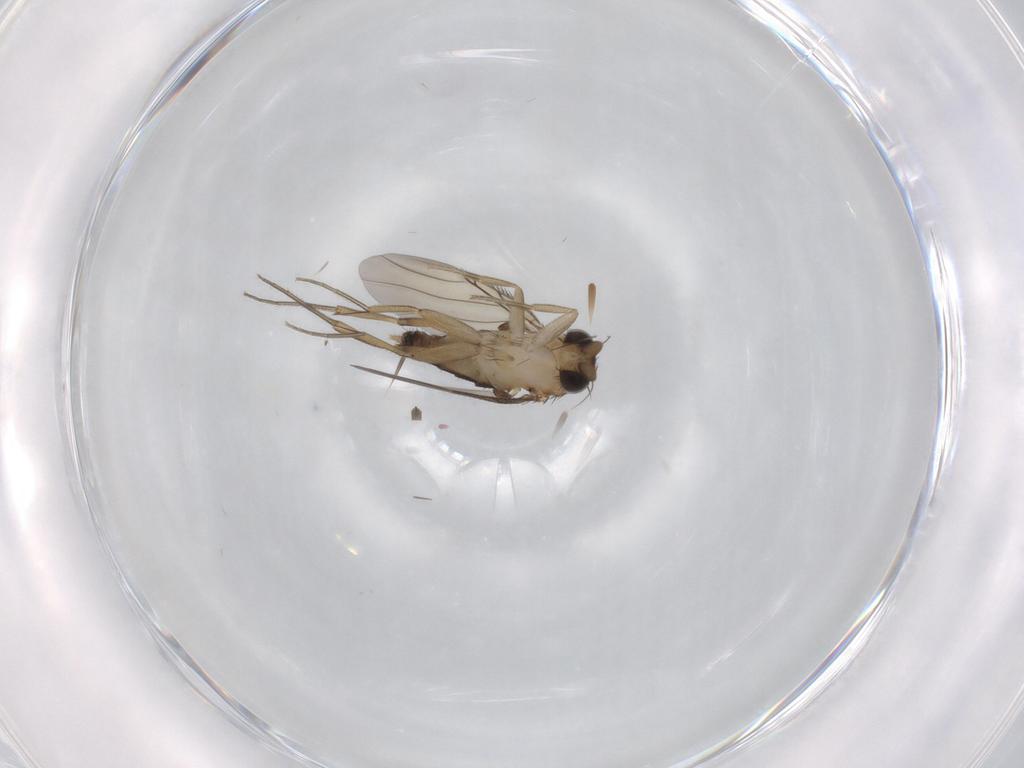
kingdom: Animalia
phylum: Arthropoda
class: Insecta
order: Diptera
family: Phoridae
